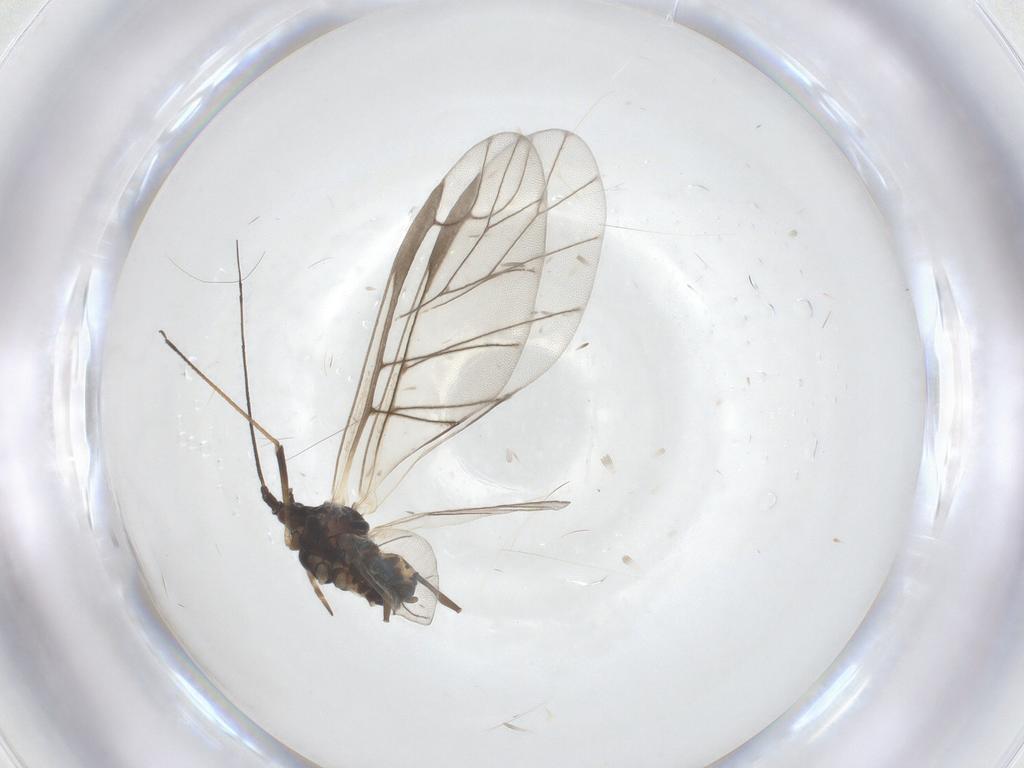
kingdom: Animalia
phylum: Arthropoda
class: Insecta
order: Hemiptera
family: Aphididae
